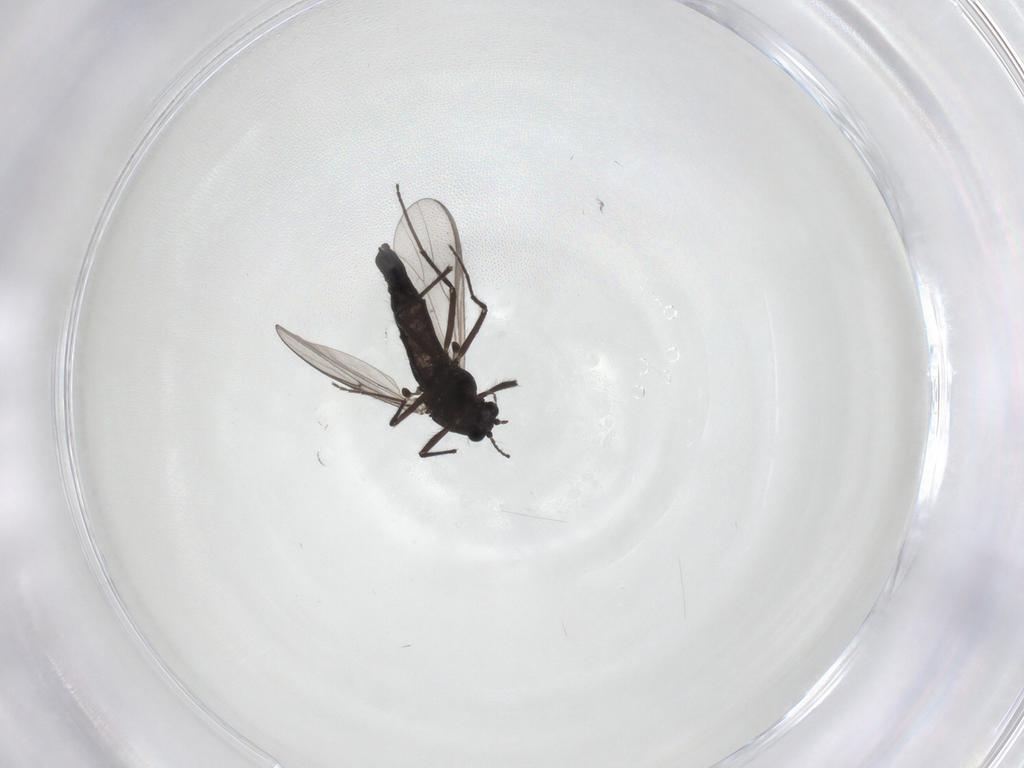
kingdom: Animalia
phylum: Arthropoda
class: Insecta
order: Diptera
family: Chironomidae
